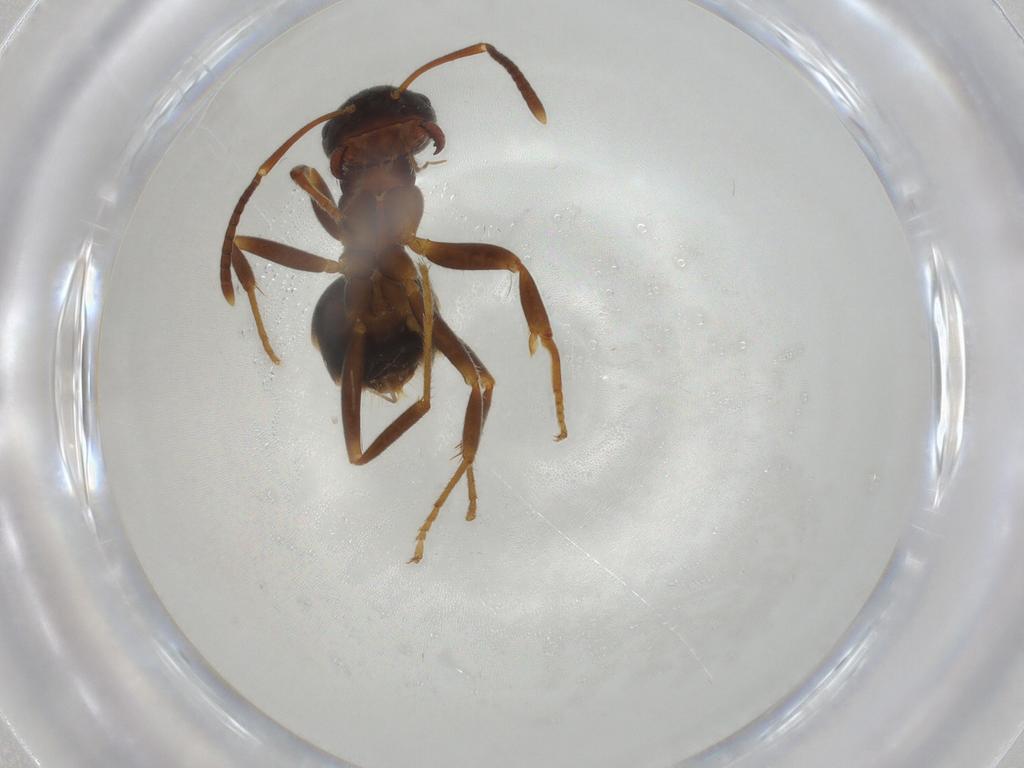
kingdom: Animalia
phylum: Arthropoda
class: Insecta
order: Hymenoptera
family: Formicidae
